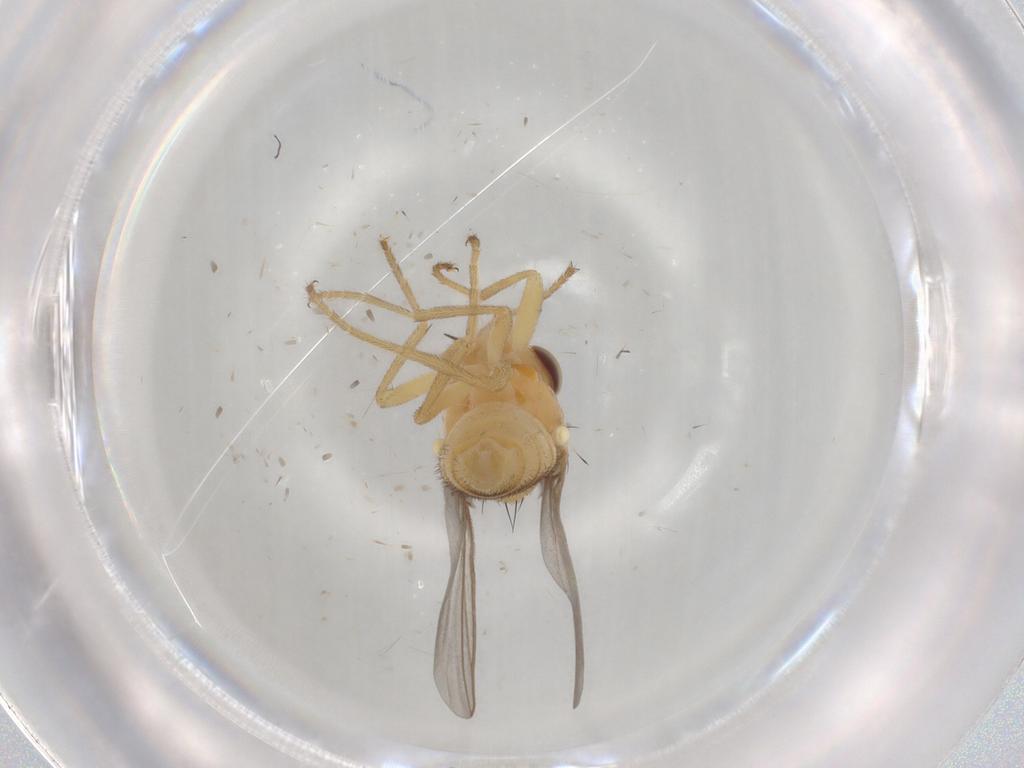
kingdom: Animalia
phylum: Arthropoda
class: Insecta
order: Diptera
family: Chloropidae
